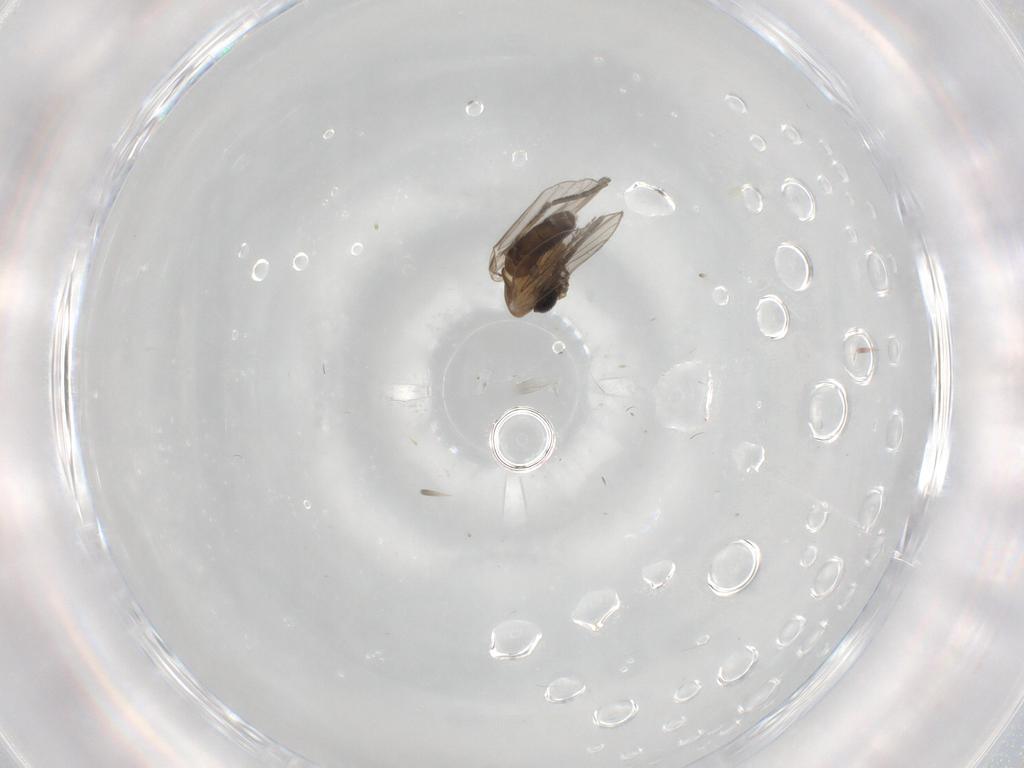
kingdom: Animalia
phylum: Arthropoda
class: Insecta
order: Diptera
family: Psychodidae
